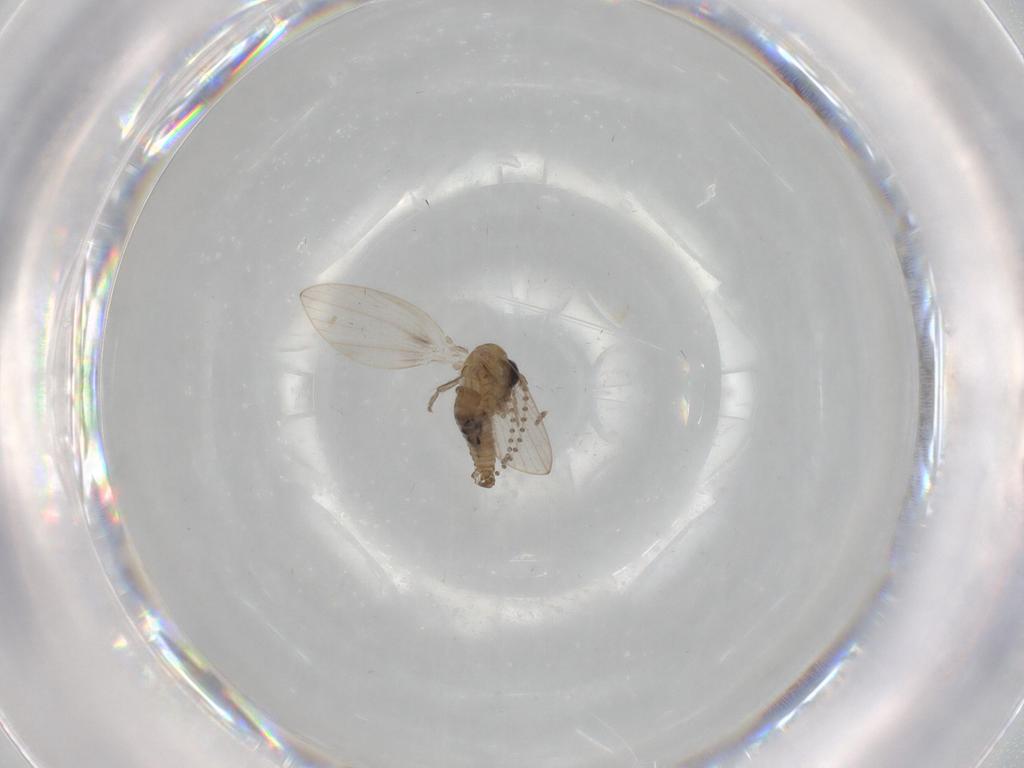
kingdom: Animalia
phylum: Arthropoda
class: Insecta
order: Diptera
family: Psychodidae
